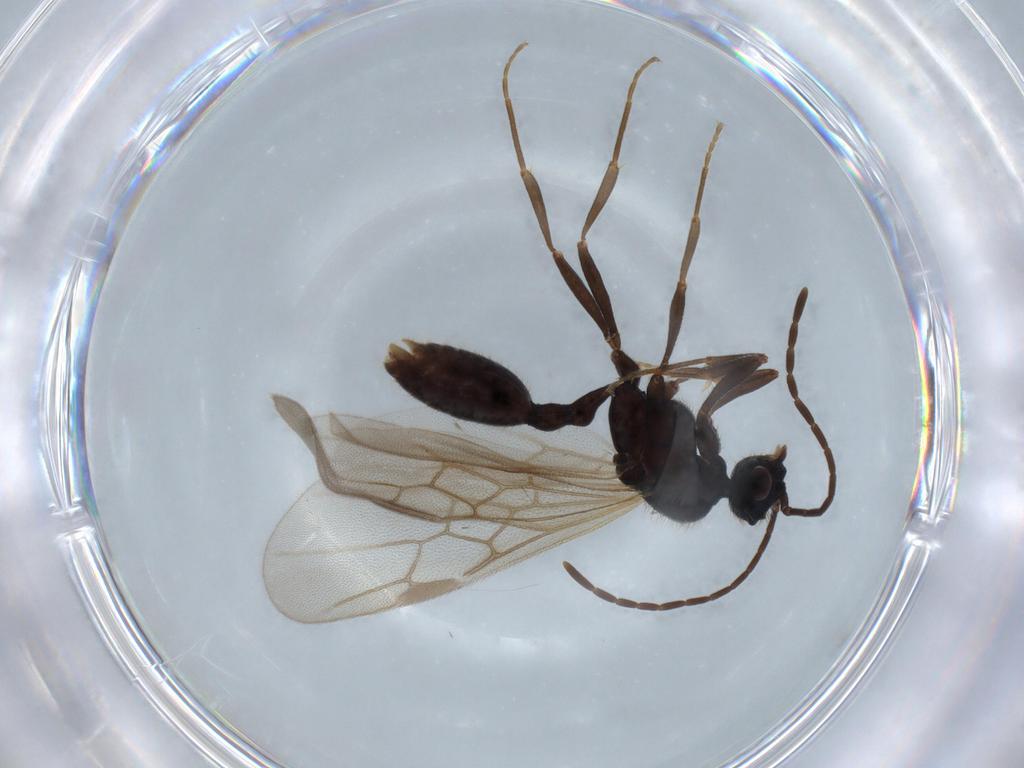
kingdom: Animalia
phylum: Arthropoda
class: Insecta
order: Hymenoptera
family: Formicidae
